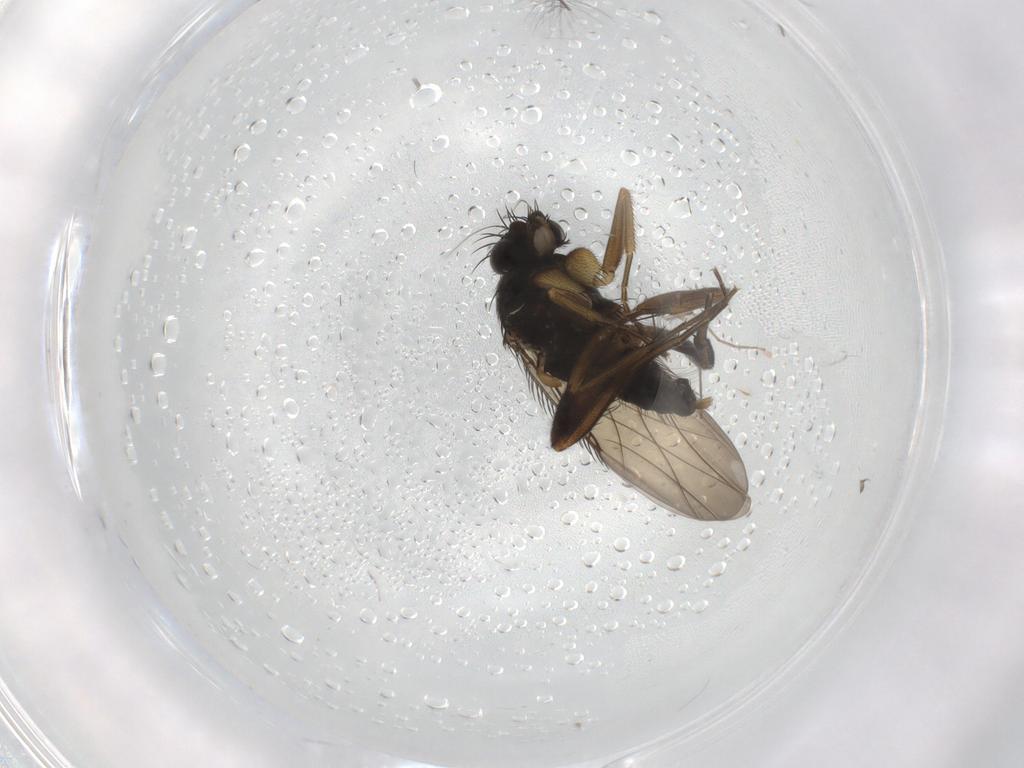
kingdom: Animalia
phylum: Arthropoda
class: Insecta
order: Diptera
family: Phoridae
